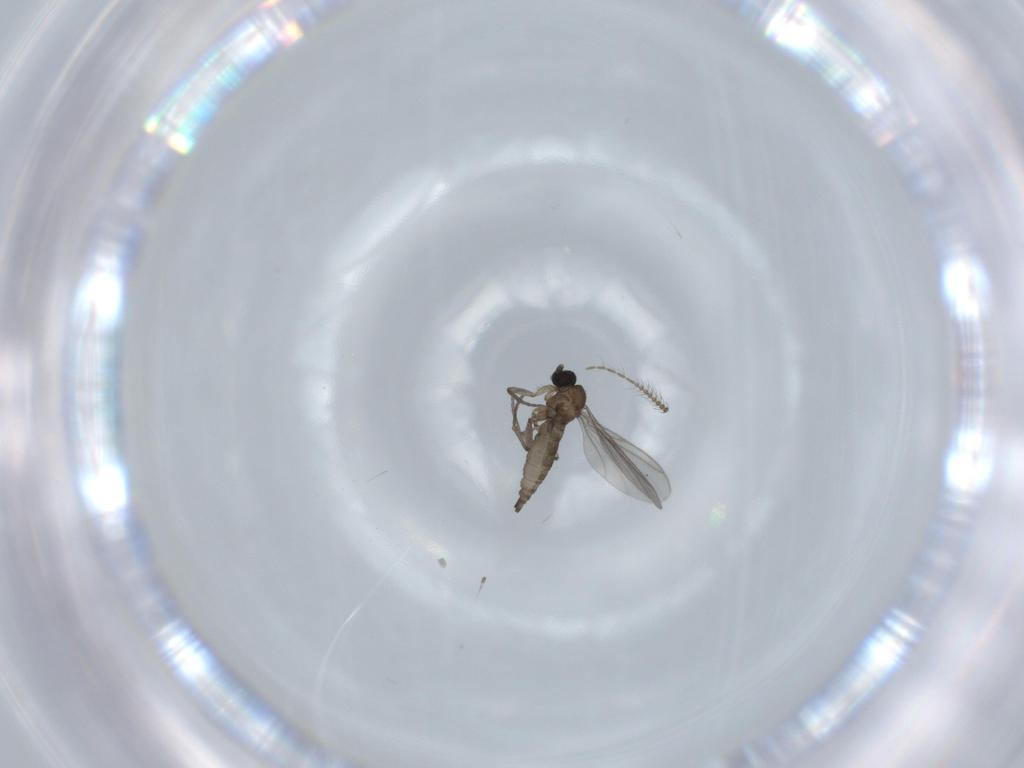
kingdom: Animalia
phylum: Arthropoda
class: Insecta
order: Diptera
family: Ceratopogonidae
